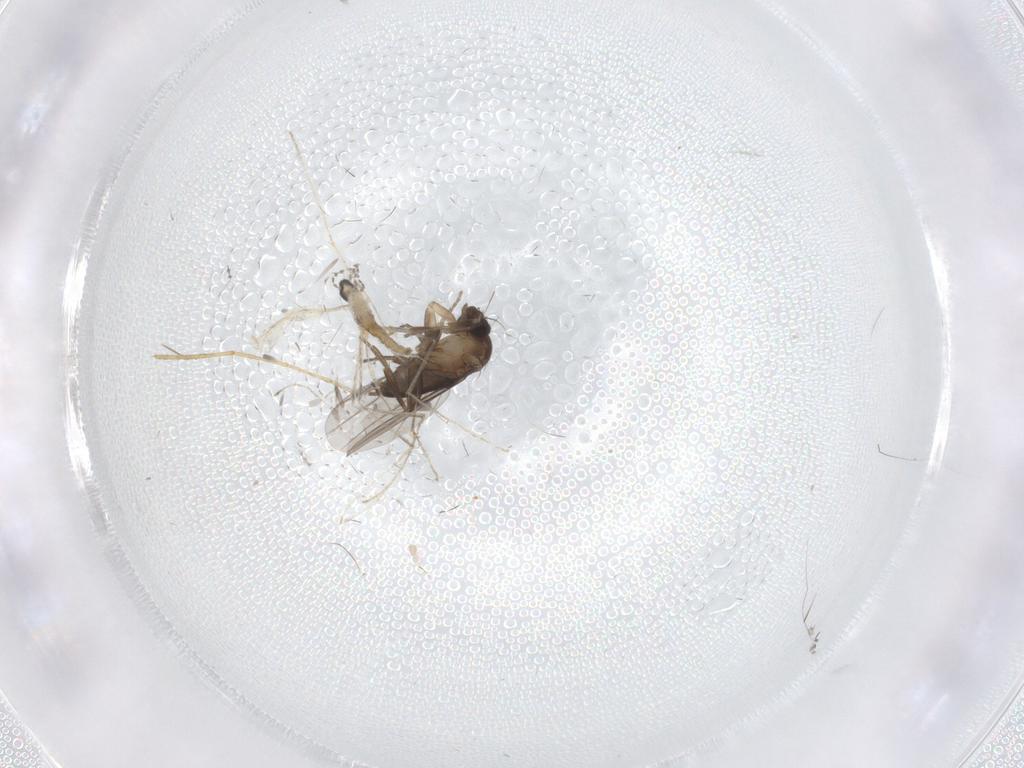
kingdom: Animalia
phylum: Arthropoda
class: Insecta
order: Diptera
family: Cecidomyiidae
